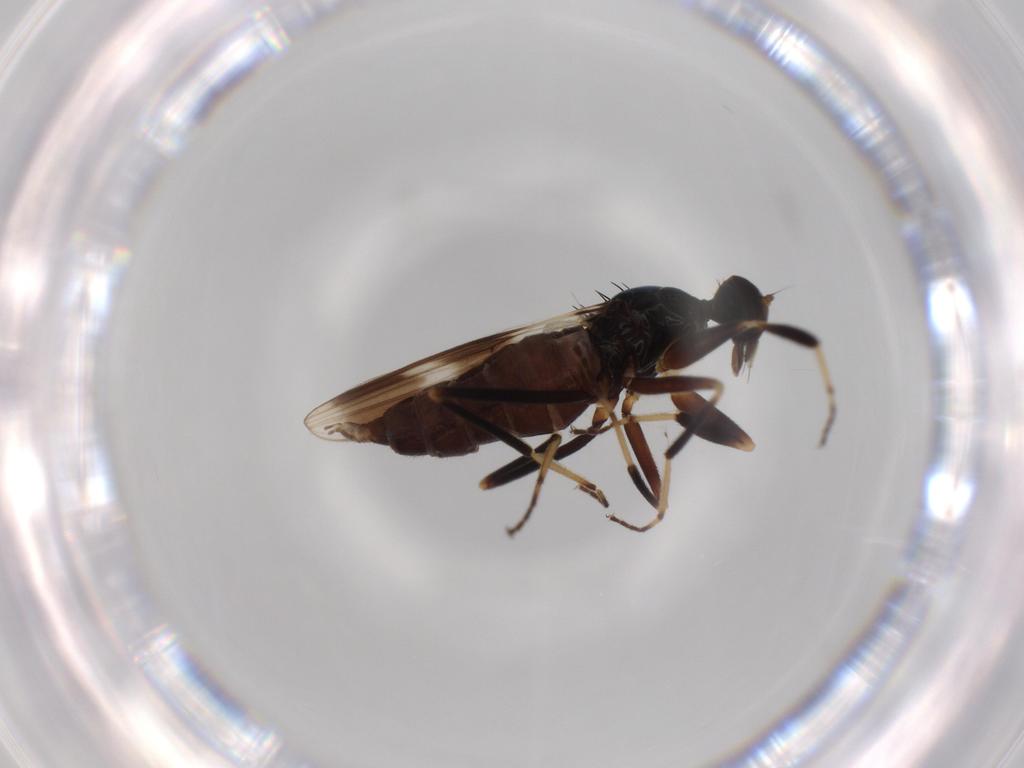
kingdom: Animalia
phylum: Arthropoda
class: Insecta
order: Diptera
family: Hybotidae
